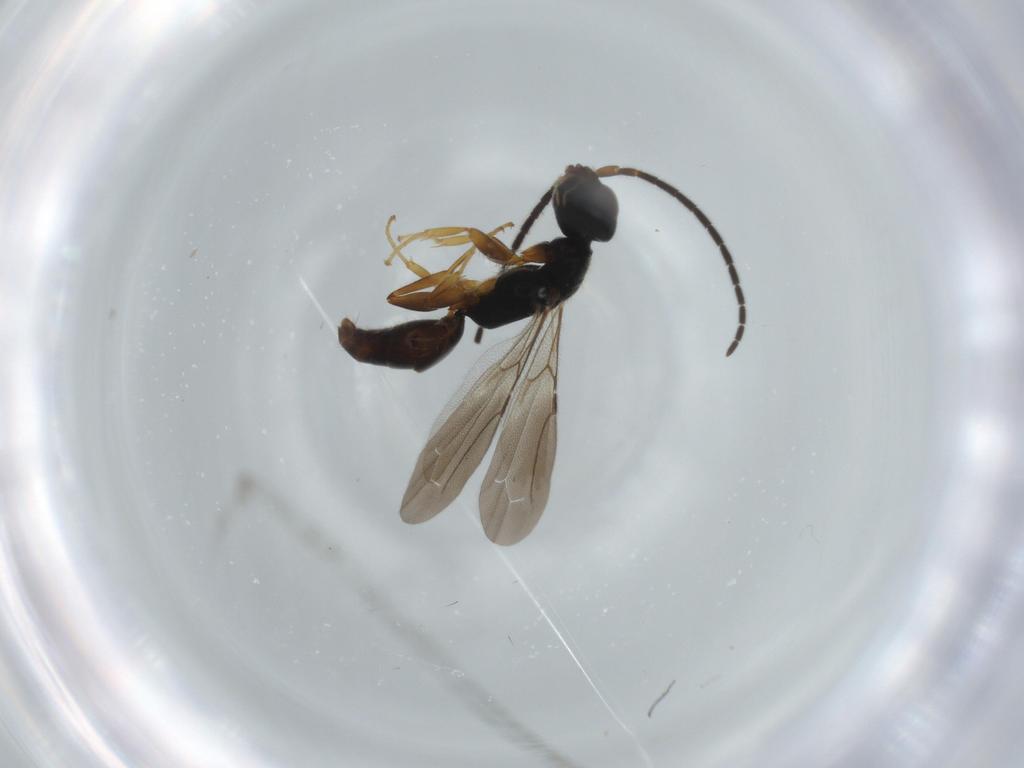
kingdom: Animalia
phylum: Arthropoda
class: Insecta
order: Hymenoptera
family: Bethylidae
